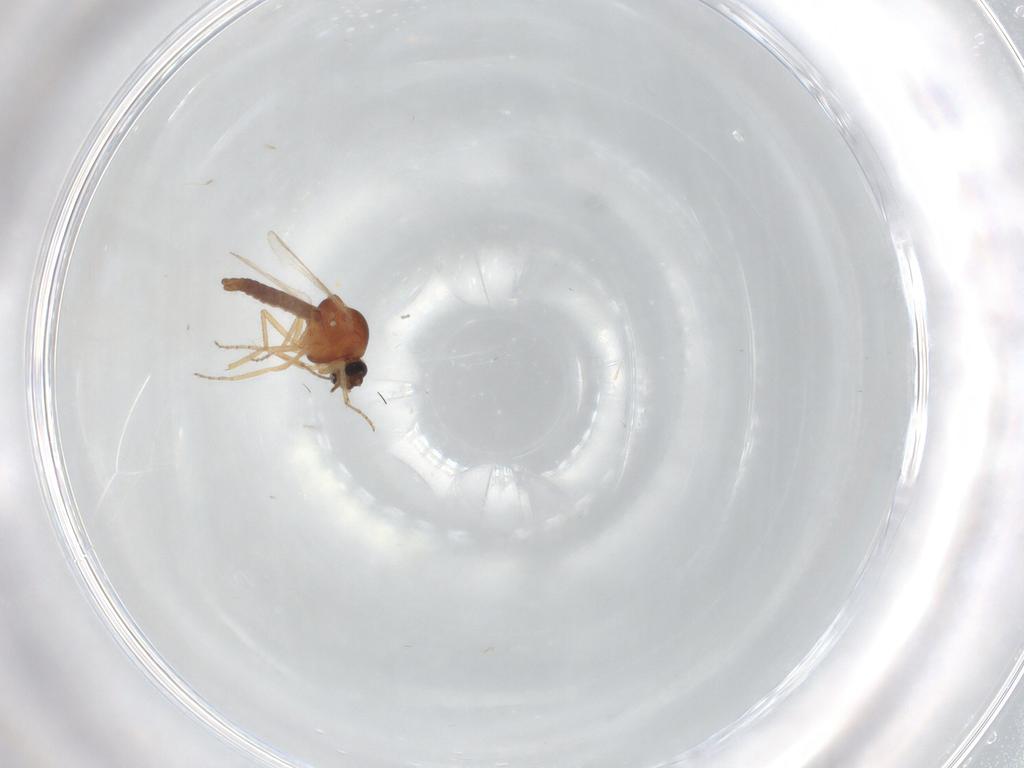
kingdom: Animalia
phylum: Arthropoda
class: Insecta
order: Diptera
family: Ceratopogonidae
